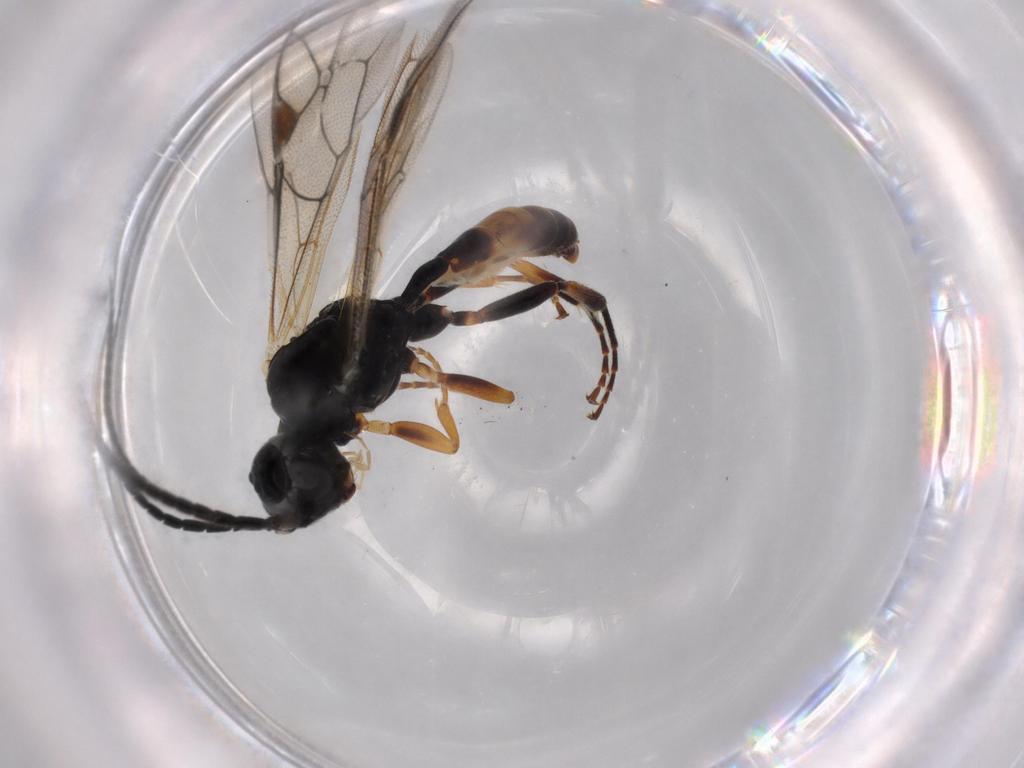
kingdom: Animalia
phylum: Arthropoda
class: Insecta
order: Hymenoptera
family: Ichneumonidae
